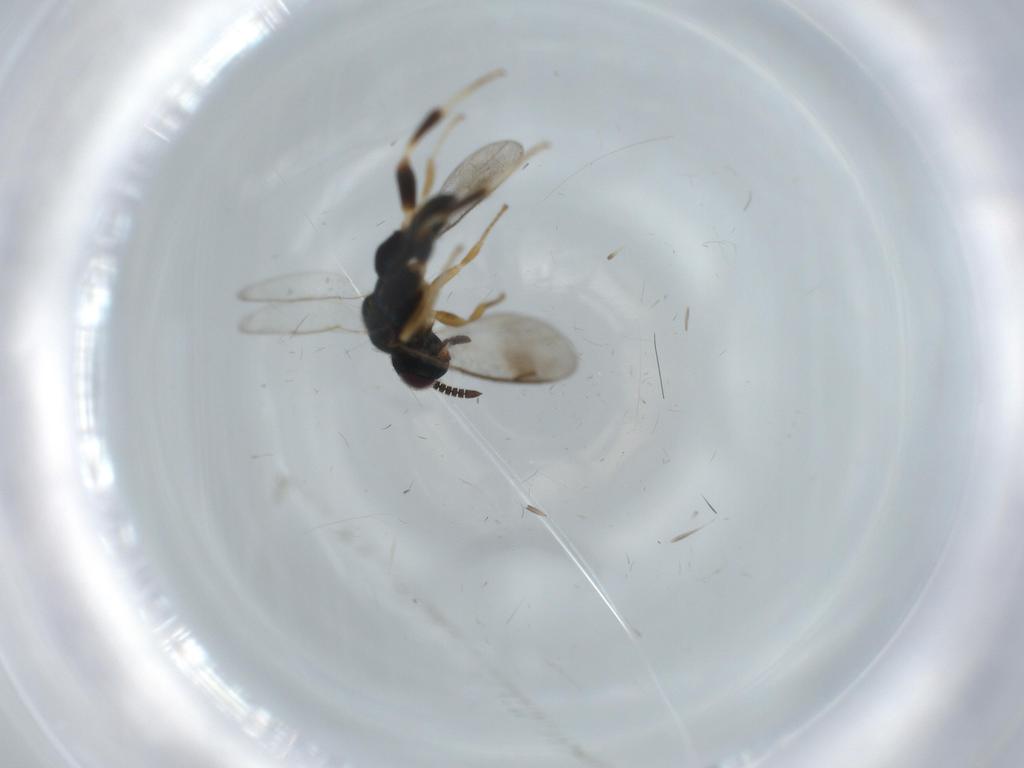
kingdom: Animalia
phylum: Arthropoda
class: Insecta
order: Hymenoptera
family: Cleonyminae
